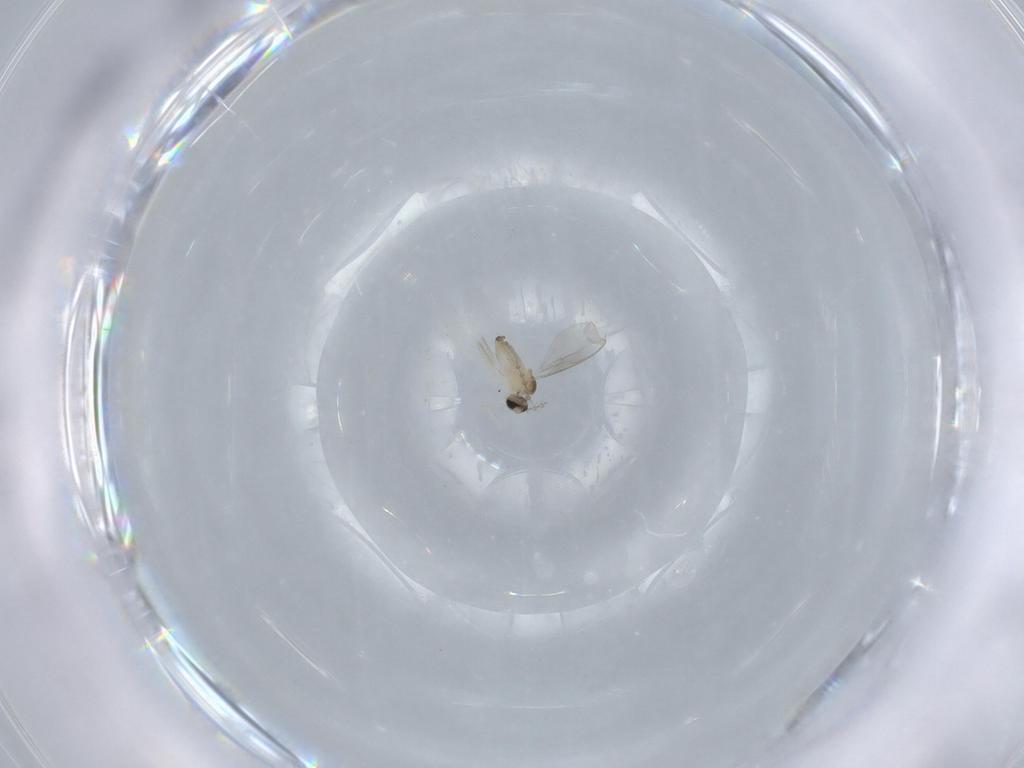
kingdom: Animalia
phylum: Arthropoda
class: Insecta
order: Diptera
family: Cecidomyiidae
